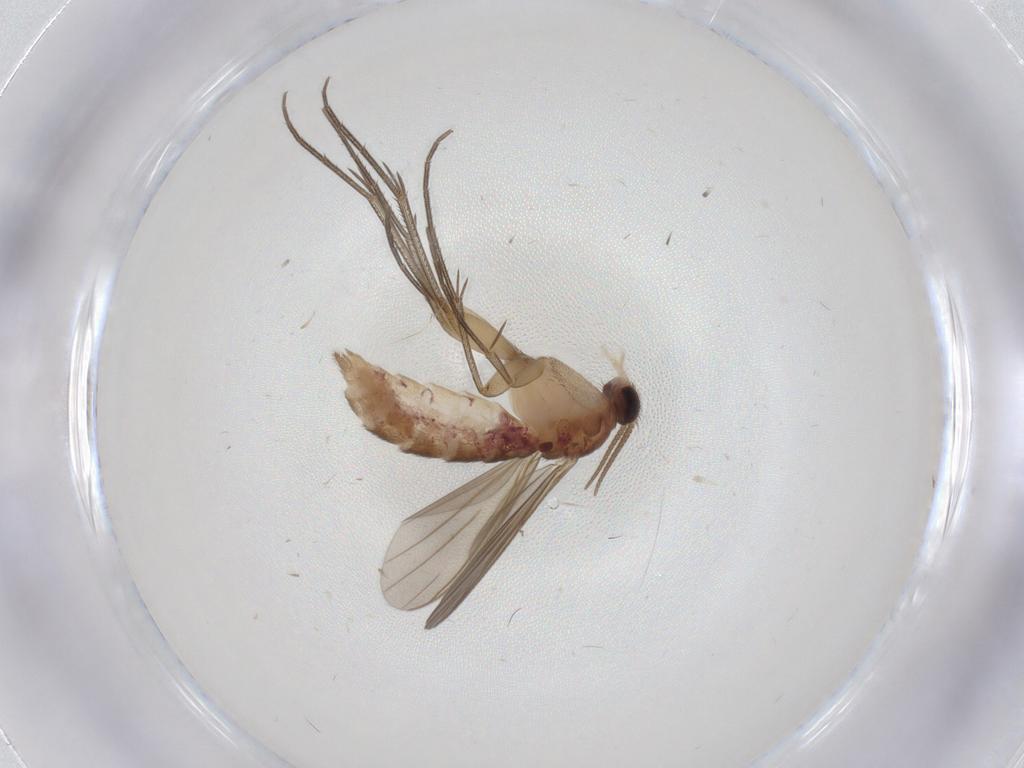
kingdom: Animalia
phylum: Arthropoda
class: Insecta
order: Diptera
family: Mycetophilidae
